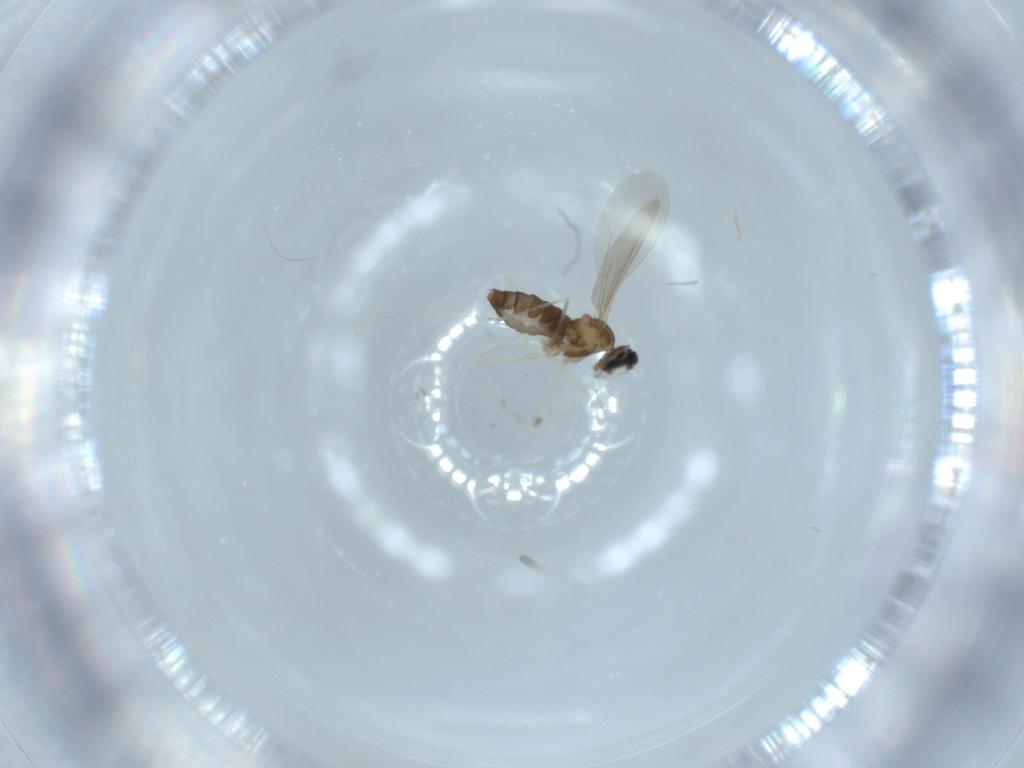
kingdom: Animalia
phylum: Arthropoda
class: Insecta
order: Diptera
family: Cecidomyiidae
